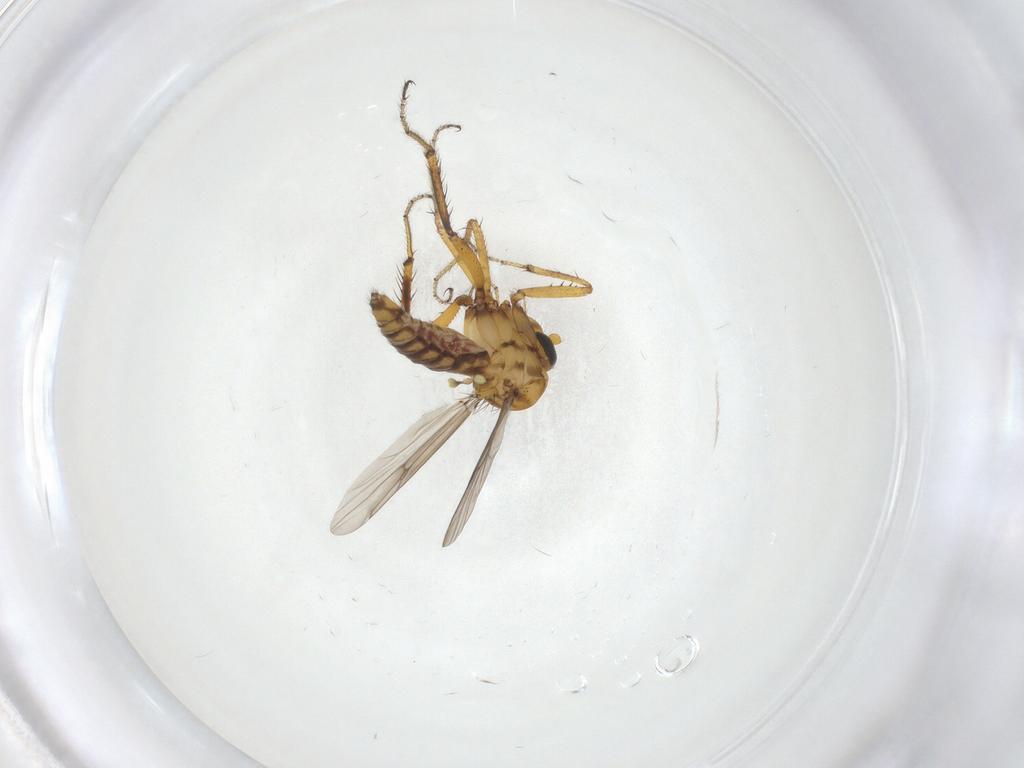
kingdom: Animalia
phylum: Arthropoda
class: Insecta
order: Diptera
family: Ceratopogonidae
